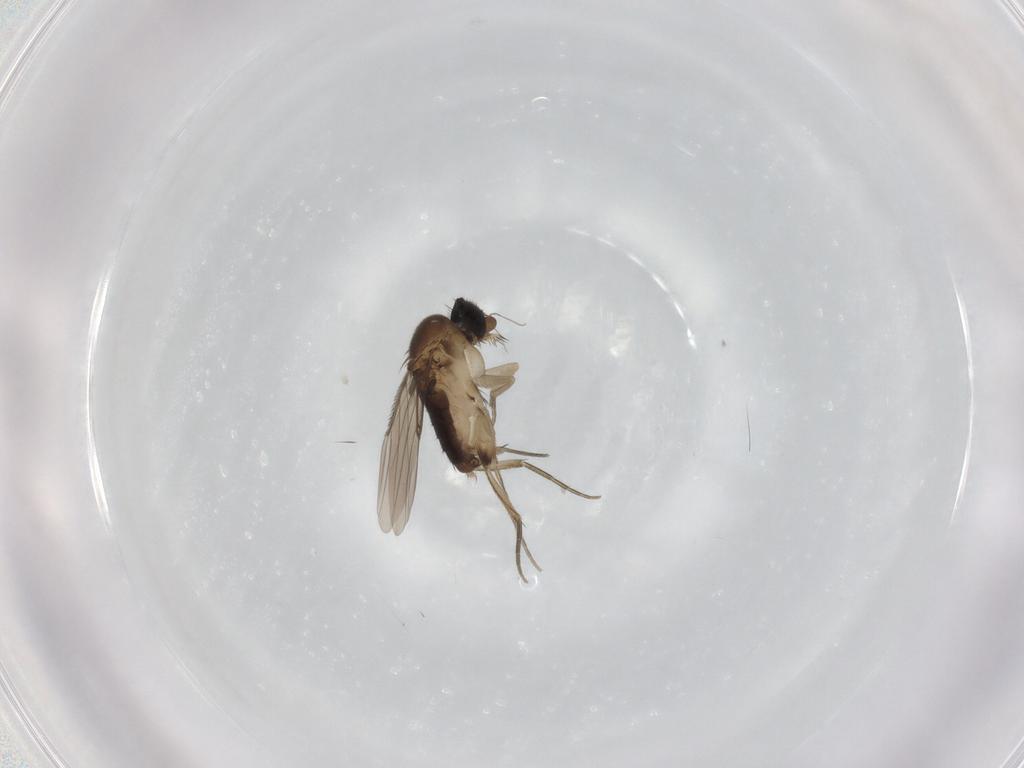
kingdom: Animalia
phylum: Arthropoda
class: Insecta
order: Diptera
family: Phoridae
